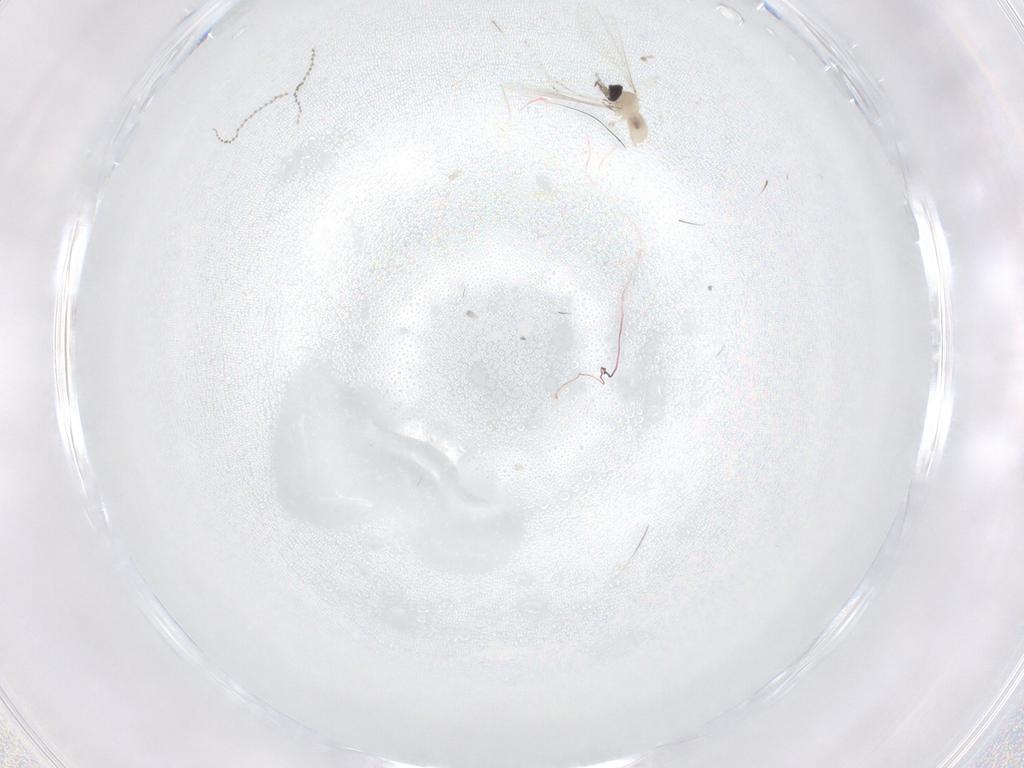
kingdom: Animalia
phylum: Arthropoda
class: Insecta
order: Diptera
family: Cecidomyiidae
